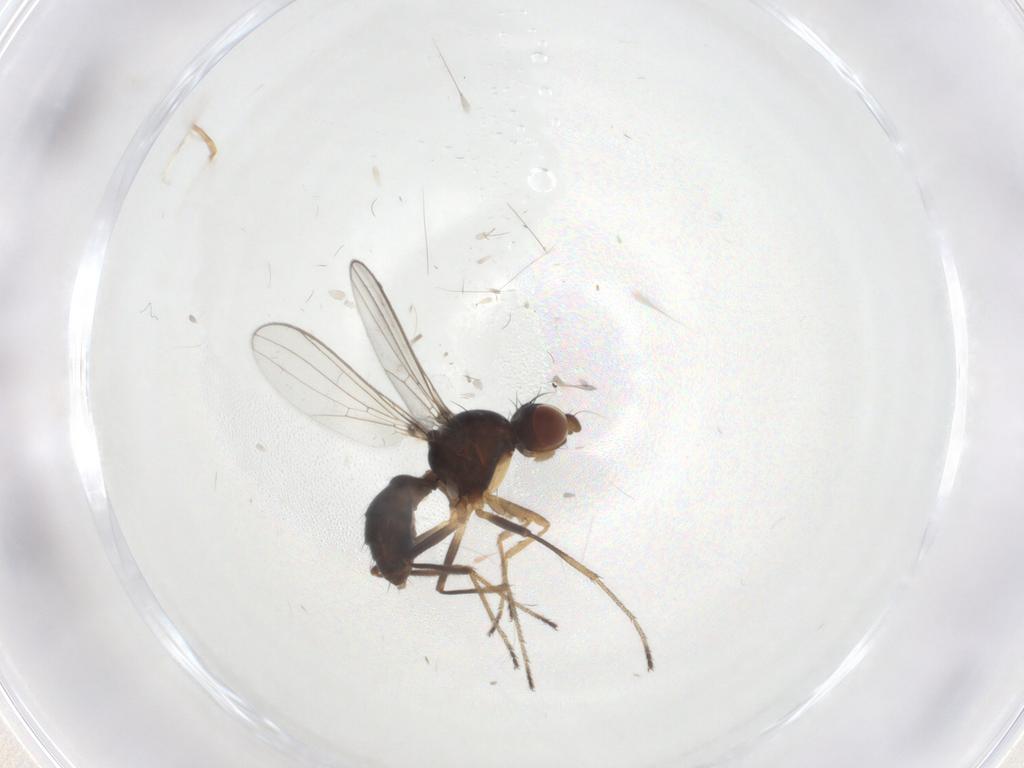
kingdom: Animalia
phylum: Arthropoda
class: Insecta
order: Diptera
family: Sepsidae
